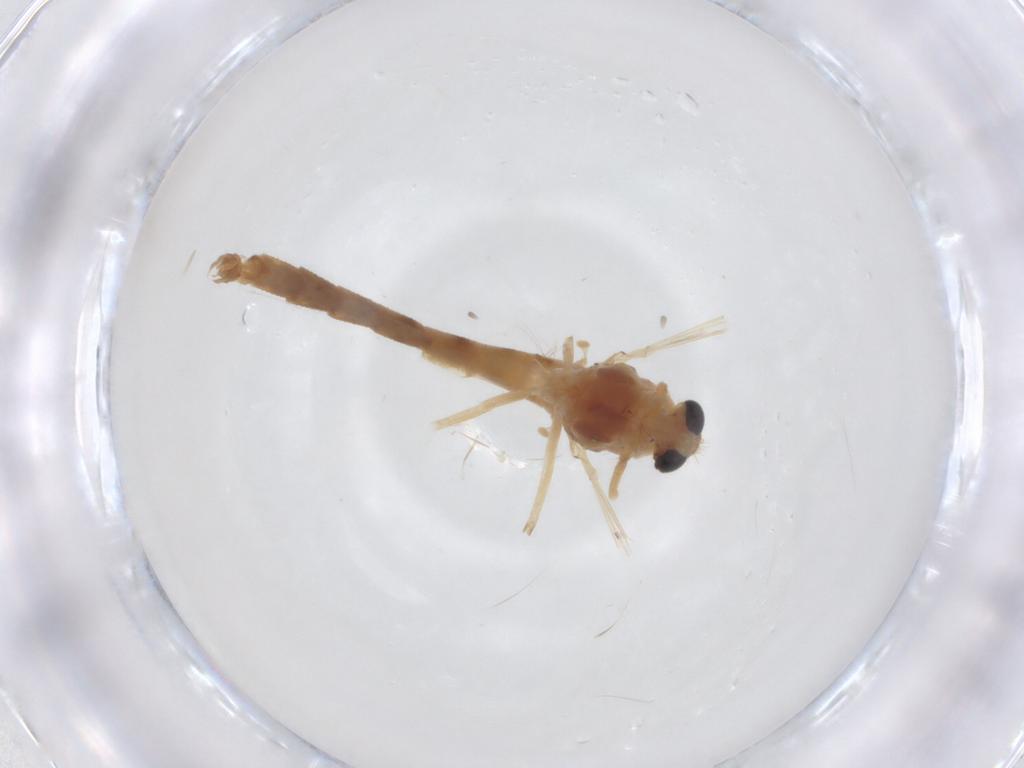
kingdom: Animalia
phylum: Arthropoda
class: Insecta
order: Diptera
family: Chironomidae
